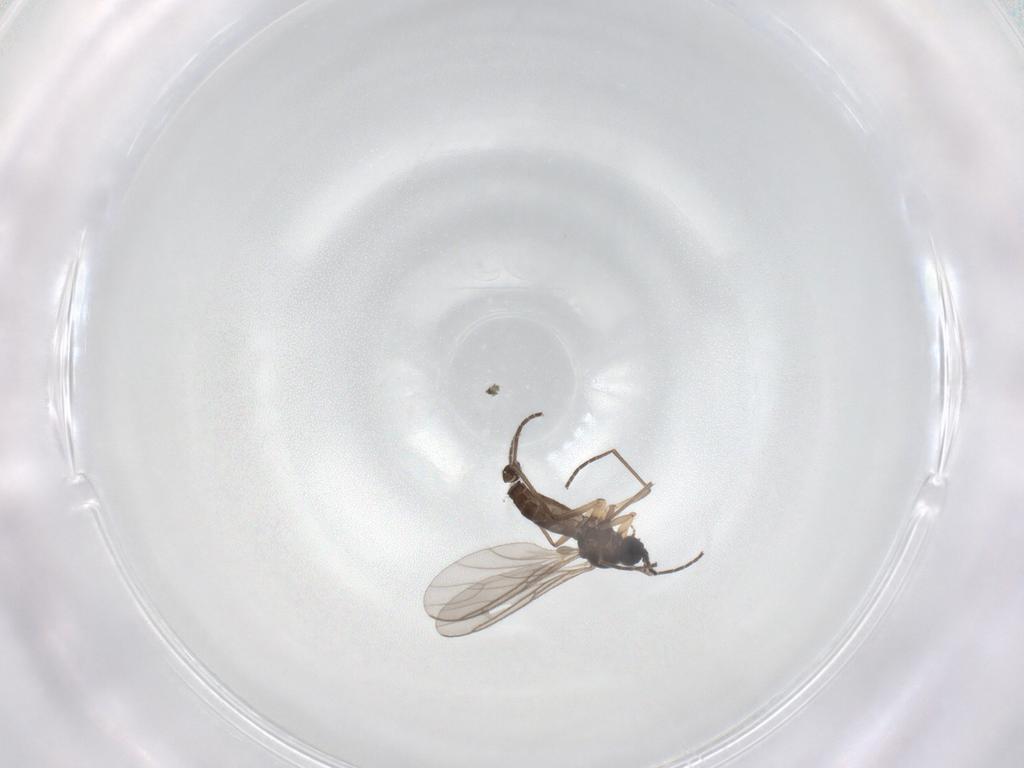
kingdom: Animalia
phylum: Arthropoda
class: Insecta
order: Diptera
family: Sciaridae
